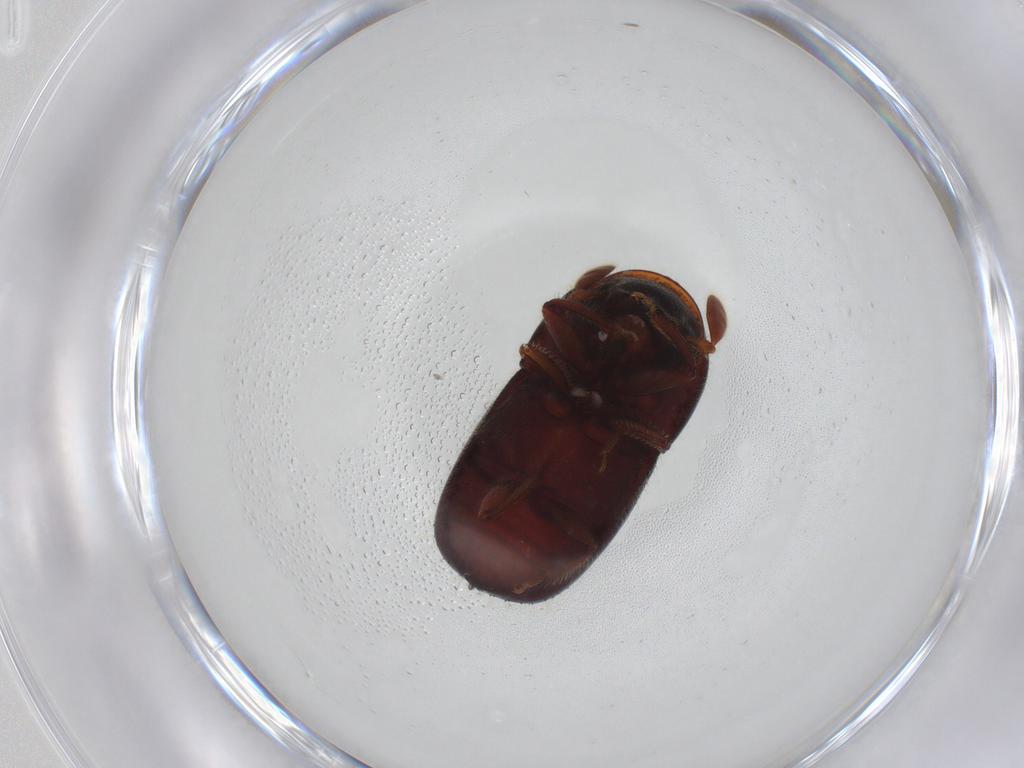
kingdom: Animalia
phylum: Arthropoda
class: Insecta
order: Coleoptera
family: Curculionidae
